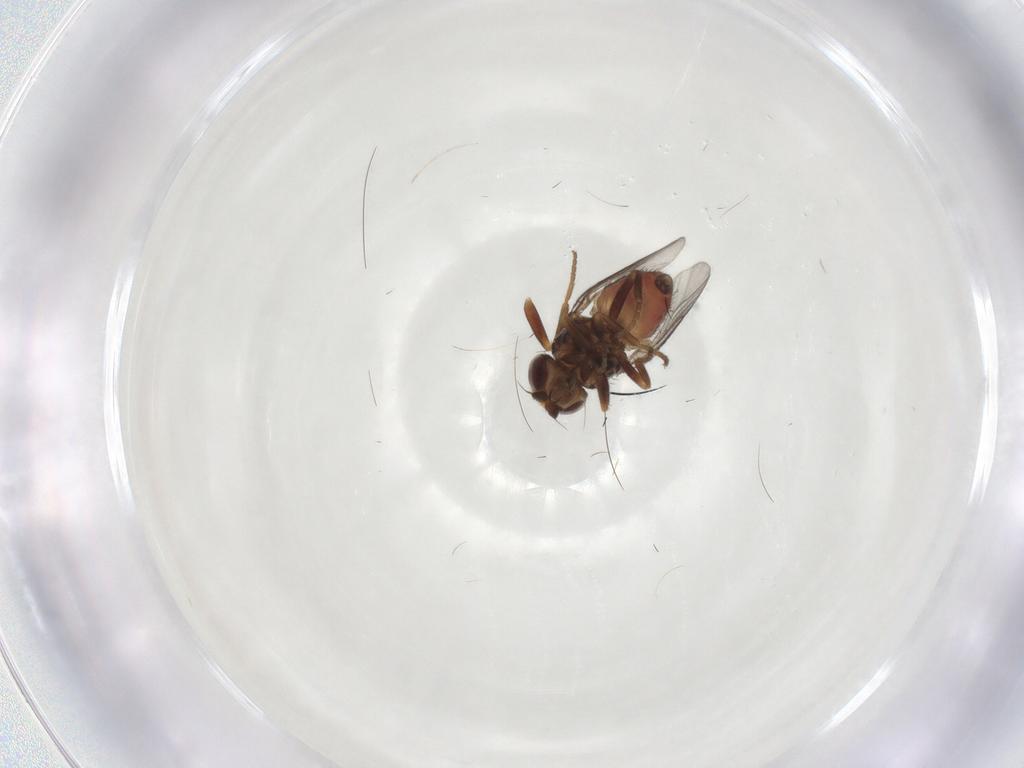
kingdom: Animalia
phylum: Arthropoda
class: Insecta
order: Diptera
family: Chloropidae
